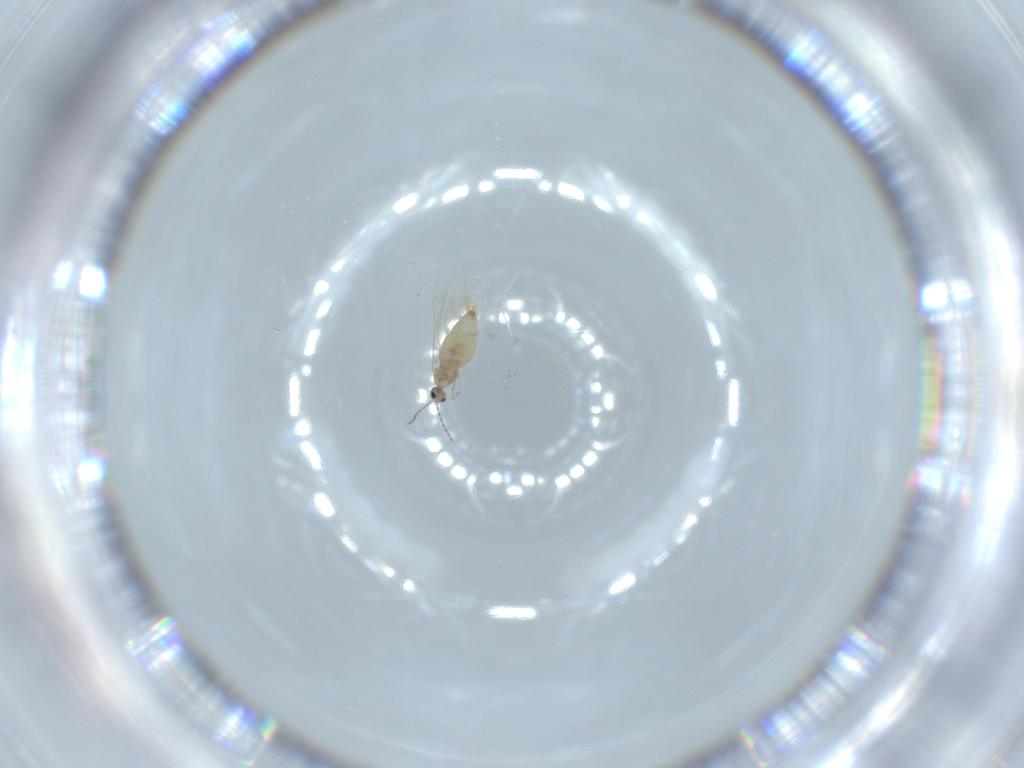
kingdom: Animalia
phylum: Arthropoda
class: Insecta
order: Diptera
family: Cecidomyiidae
